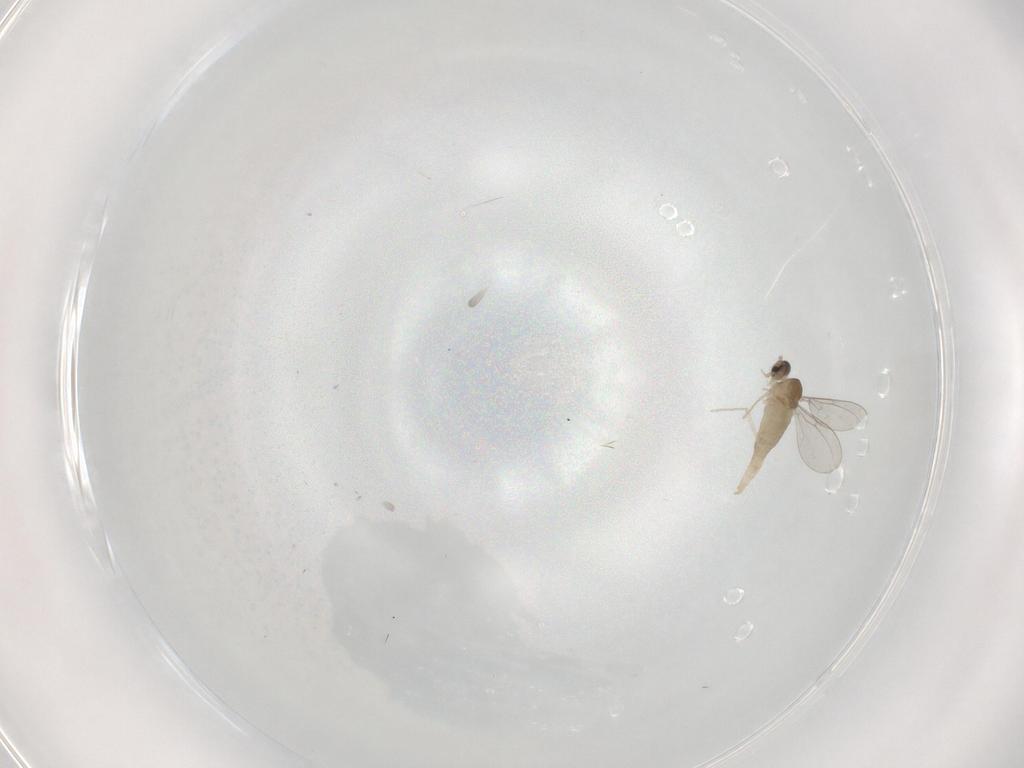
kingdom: Animalia
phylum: Arthropoda
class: Insecta
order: Diptera
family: Cecidomyiidae
